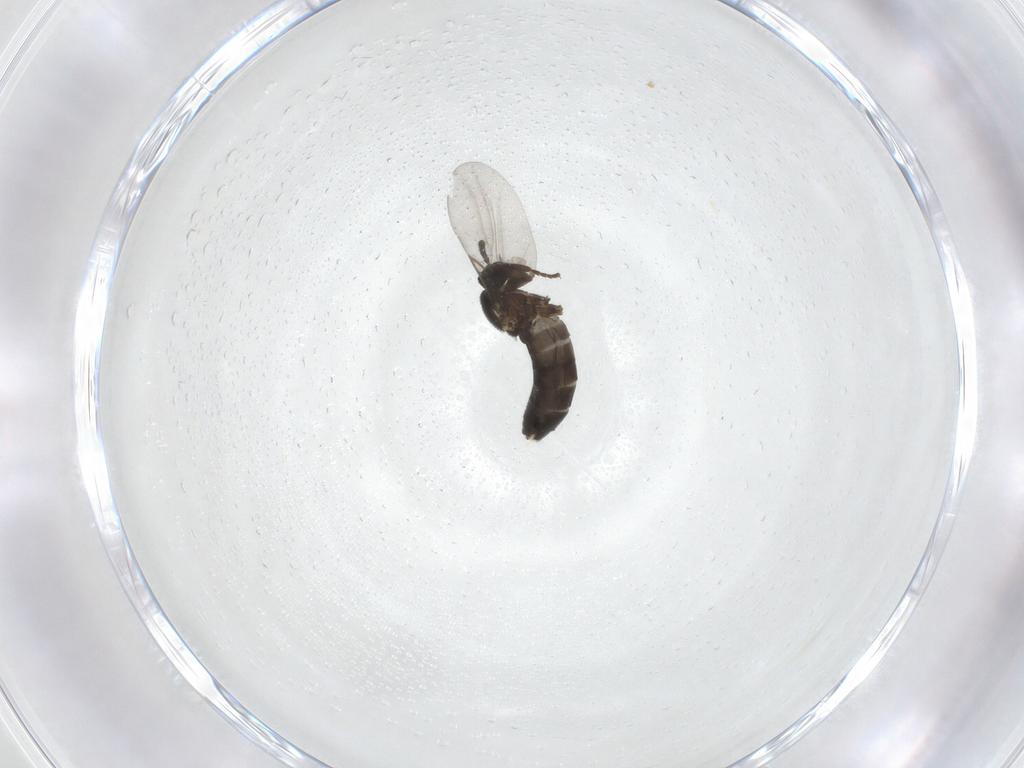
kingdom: Animalia
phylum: Arthropoda
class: Insecta
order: Diptera
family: Scatopsidae
